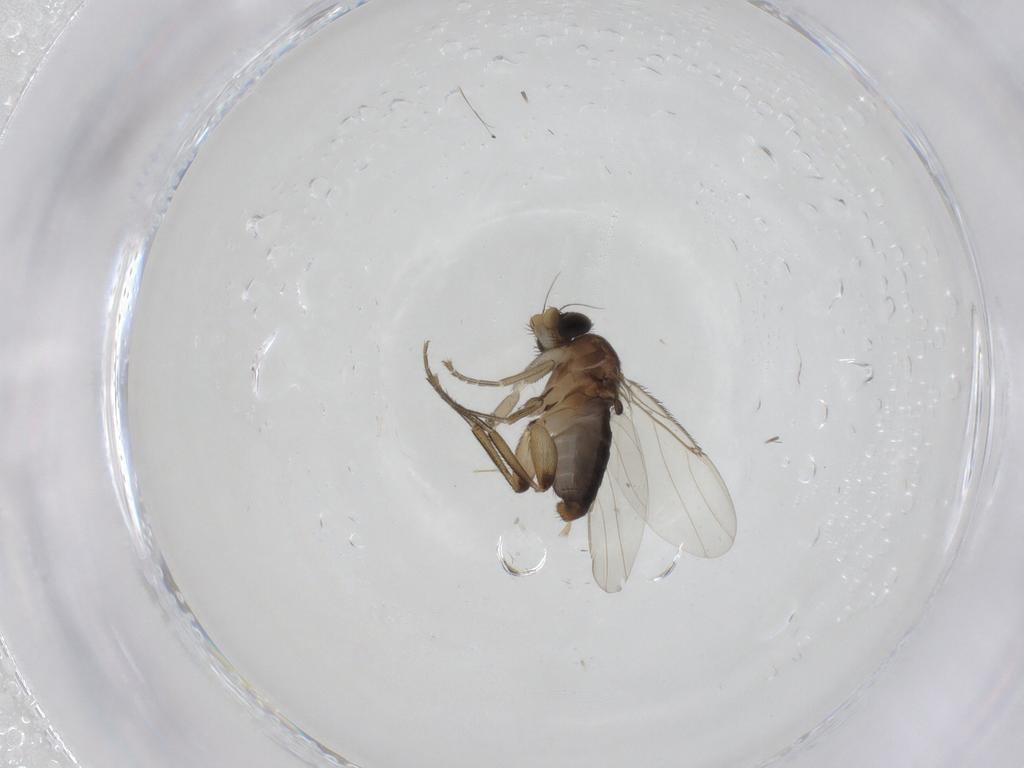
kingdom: Animalia
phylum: Arthropoda
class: Insecta
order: Diptera
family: Phoridae
